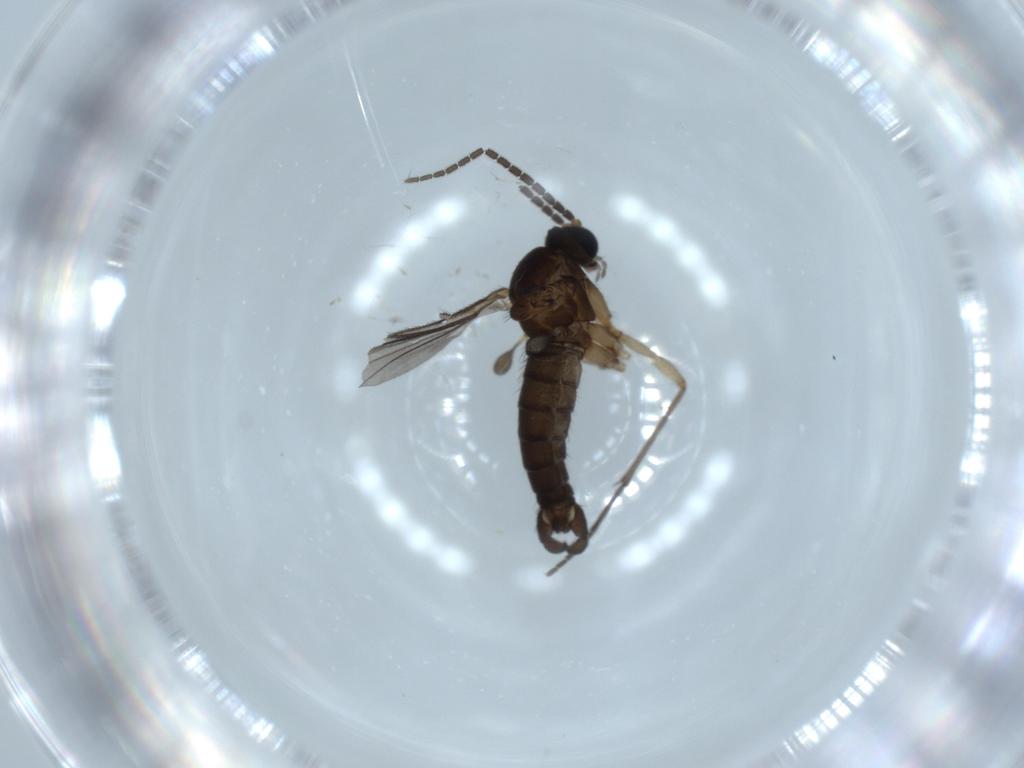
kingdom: Animalia
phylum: Arthropoda
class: Insecta
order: Diptera
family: Sciaridae
